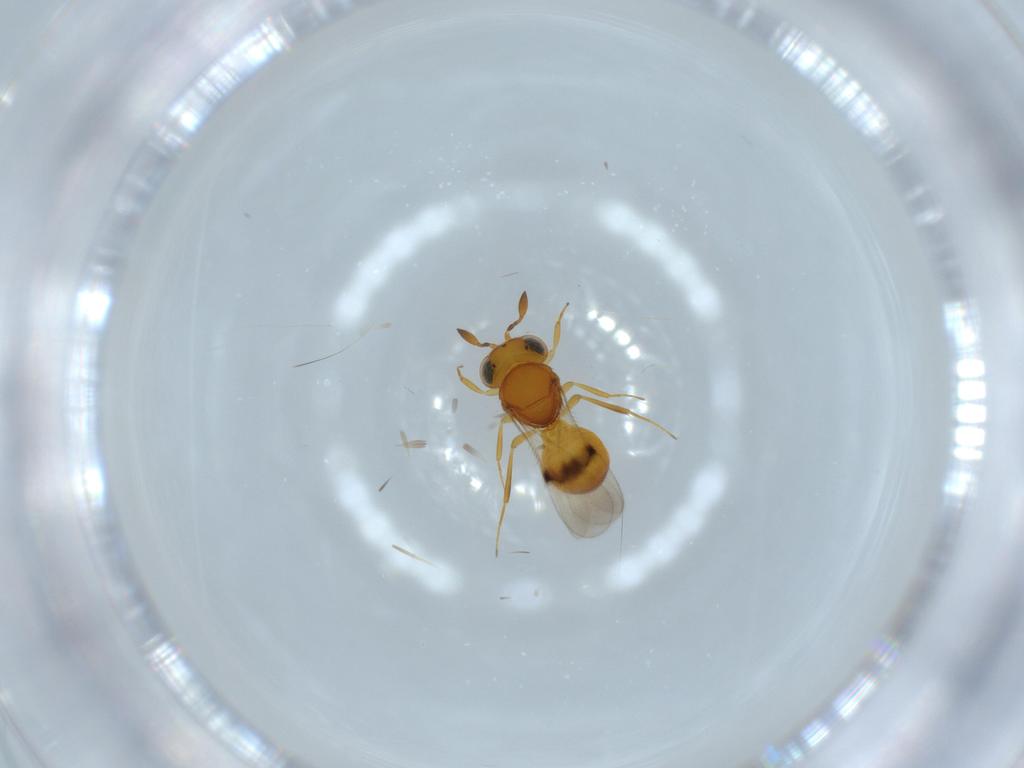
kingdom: Animalia
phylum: Arthropoda
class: Insecta
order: Hymenoptera
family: Scelionidae
